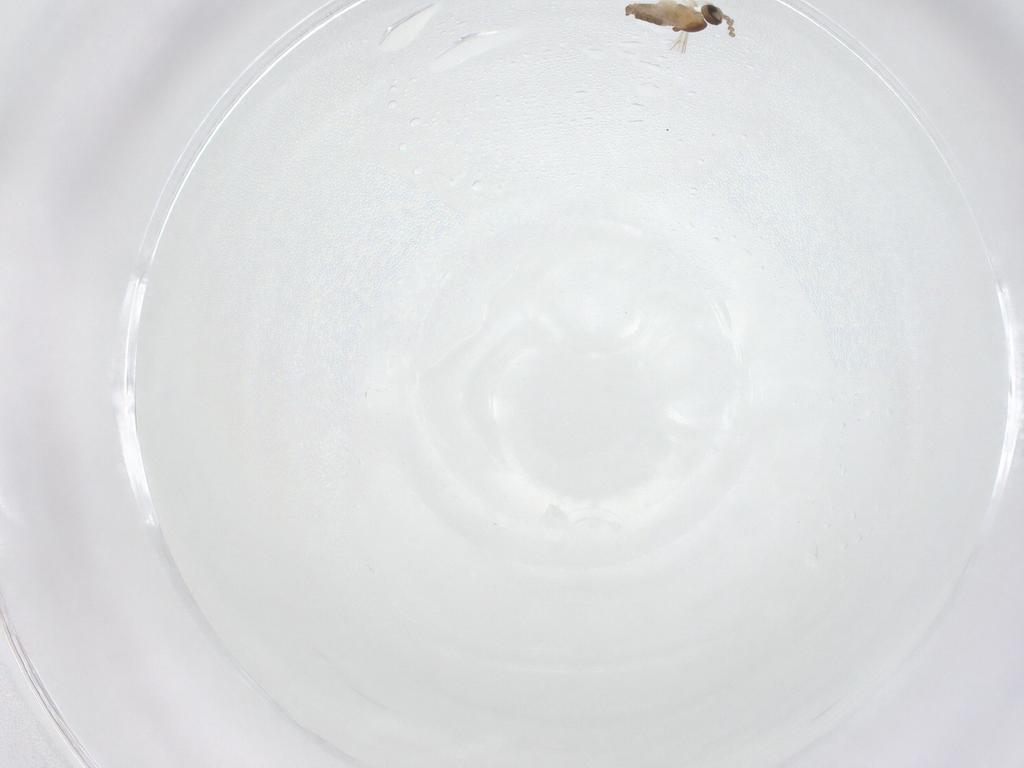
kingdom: Animalia
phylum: Arthropoda
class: Insecta
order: Diptera
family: Cecidomyiidae
